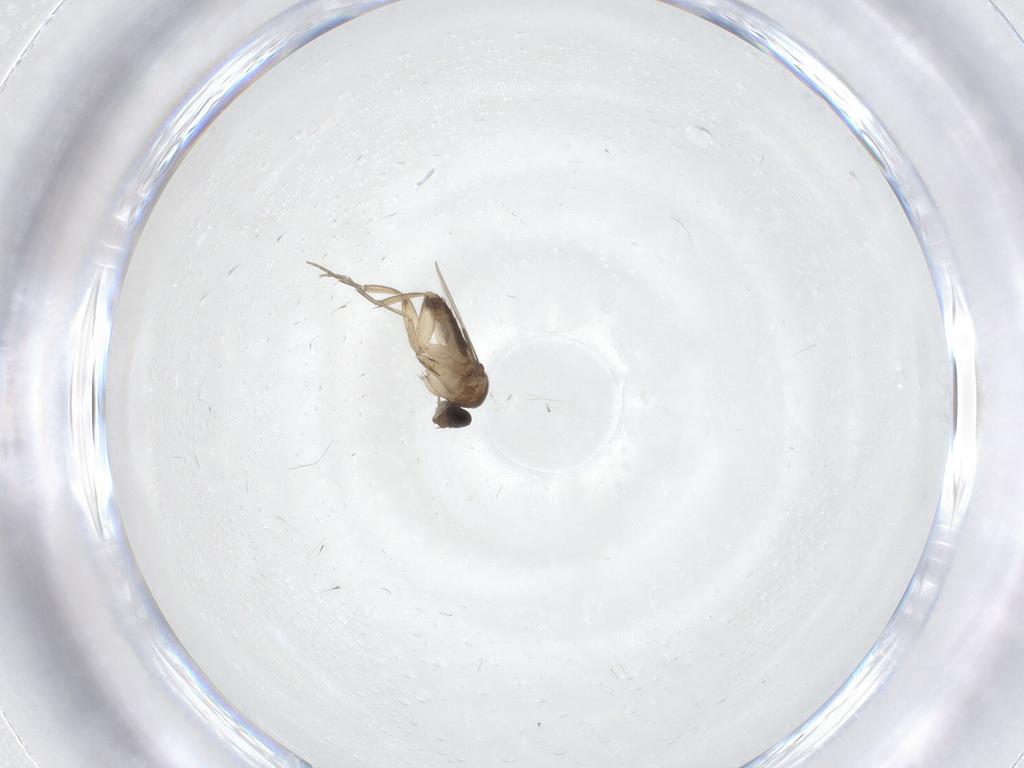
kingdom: Animalia
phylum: Arthropoda
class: Insecta
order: Diptera
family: Phoridae
